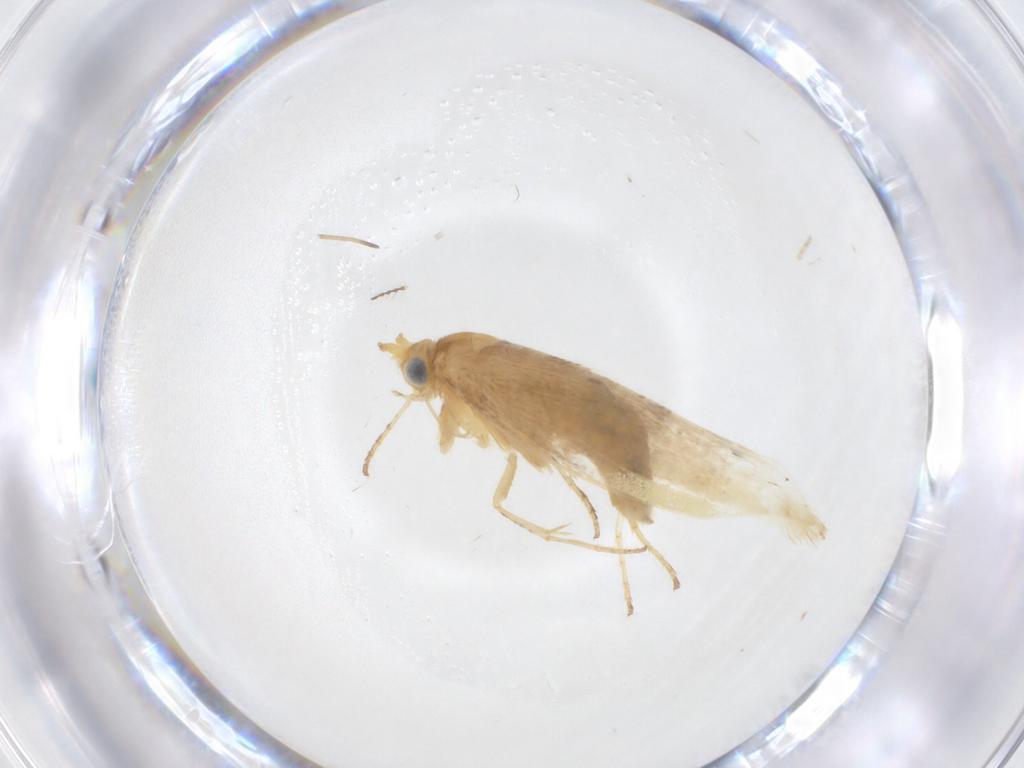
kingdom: Animalia
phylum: Arthropoda
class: Insecta
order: Lepidoptera
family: Argyresthiidae
